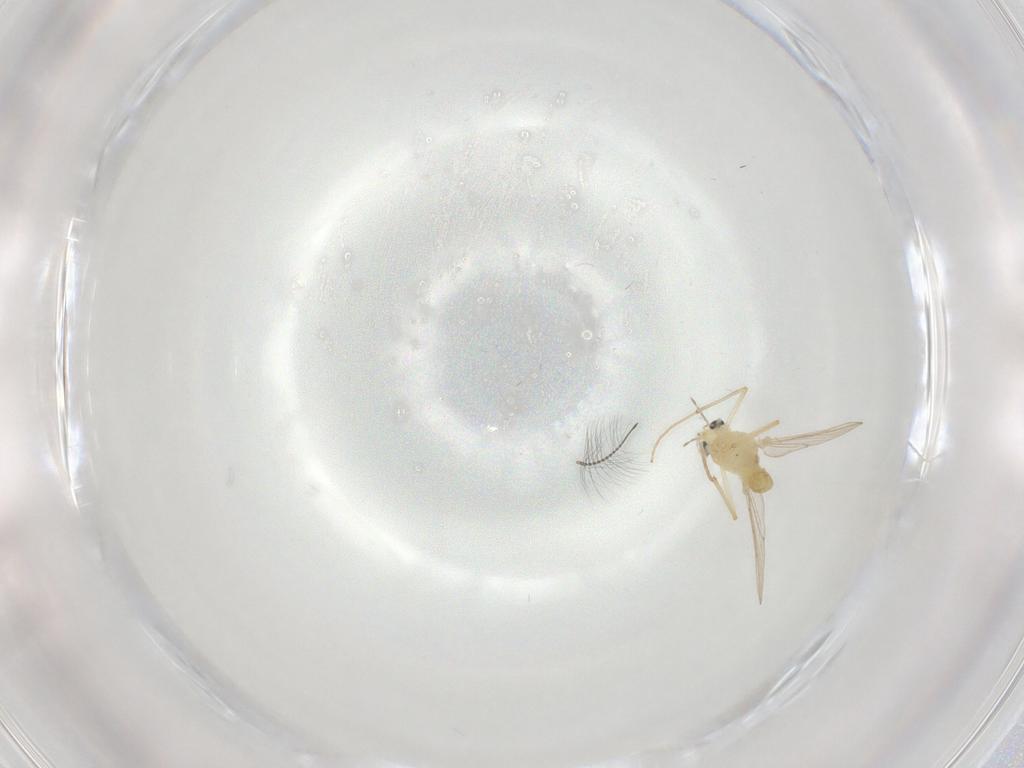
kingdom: Animalia
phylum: Arthropoda
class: Insecta
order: Diptera
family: Chironomidae
